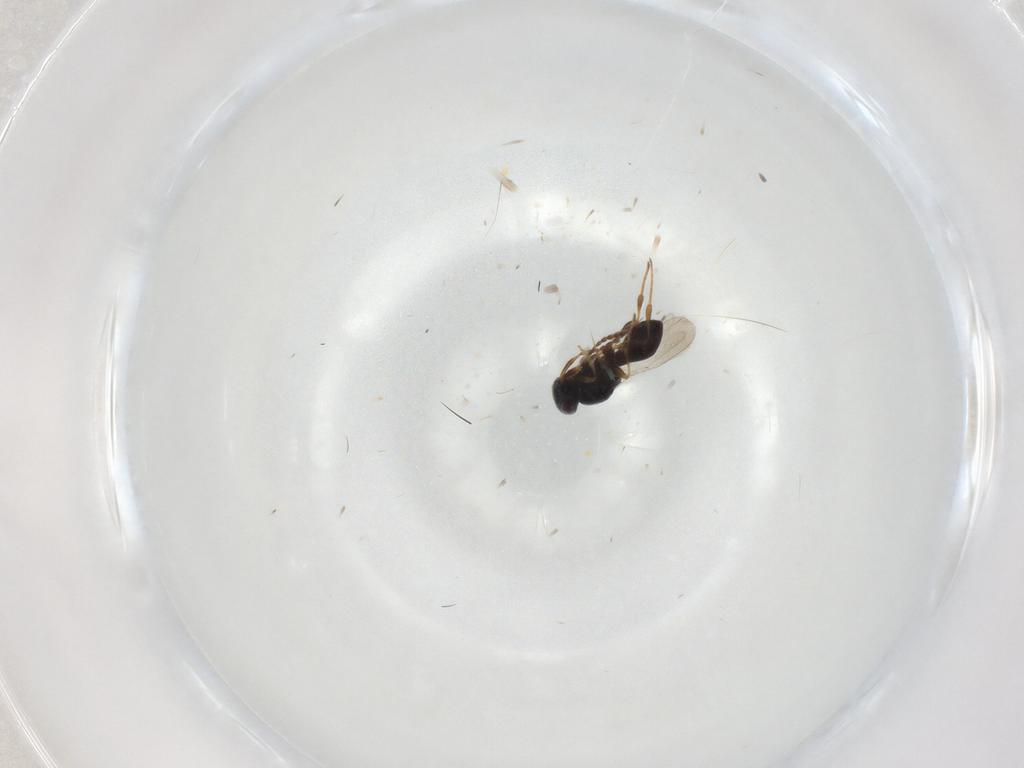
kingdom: Animalia
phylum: Arthropoda
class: Insecta
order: Hymenoptera
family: Platygastridae
